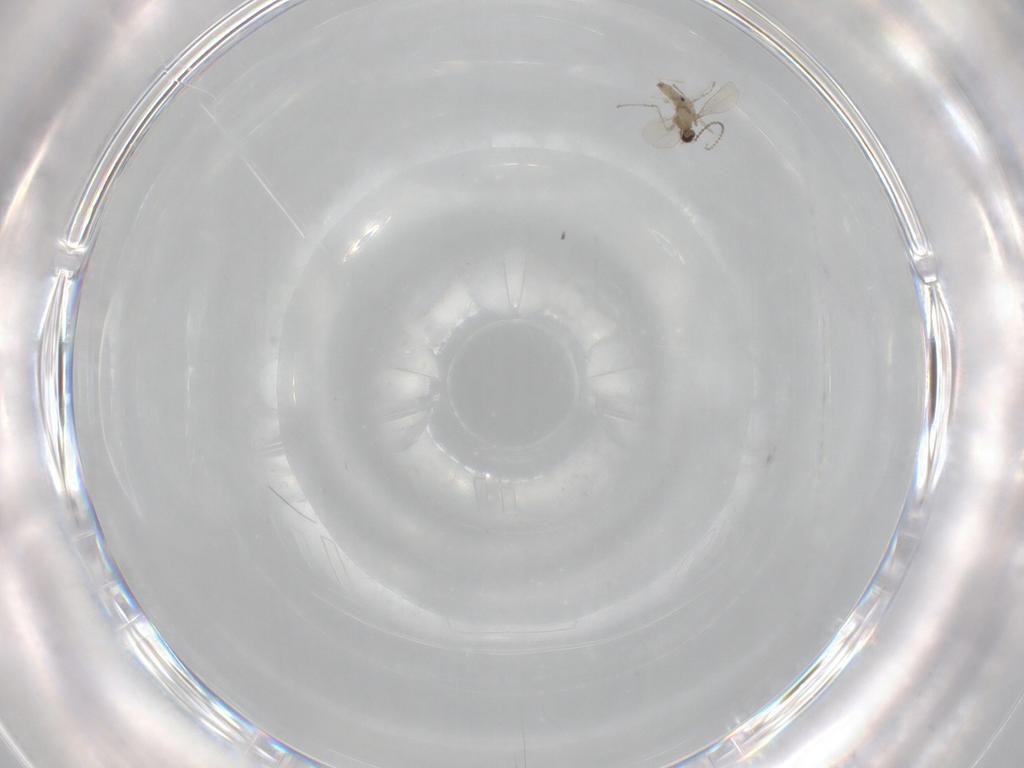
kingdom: Animalia
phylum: Arthropoda
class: Insecta
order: Diptera
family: Cecidomyiidae
